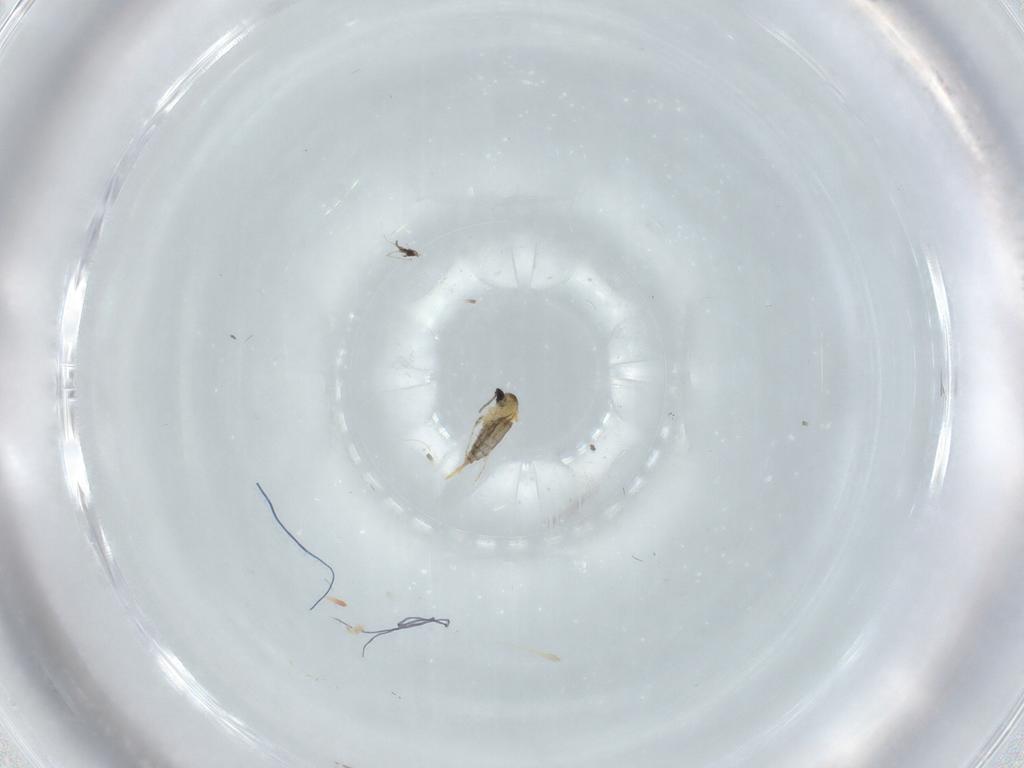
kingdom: Animalia
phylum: Arthropoda
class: Insecta
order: Diptera
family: Cecidomyiidae
